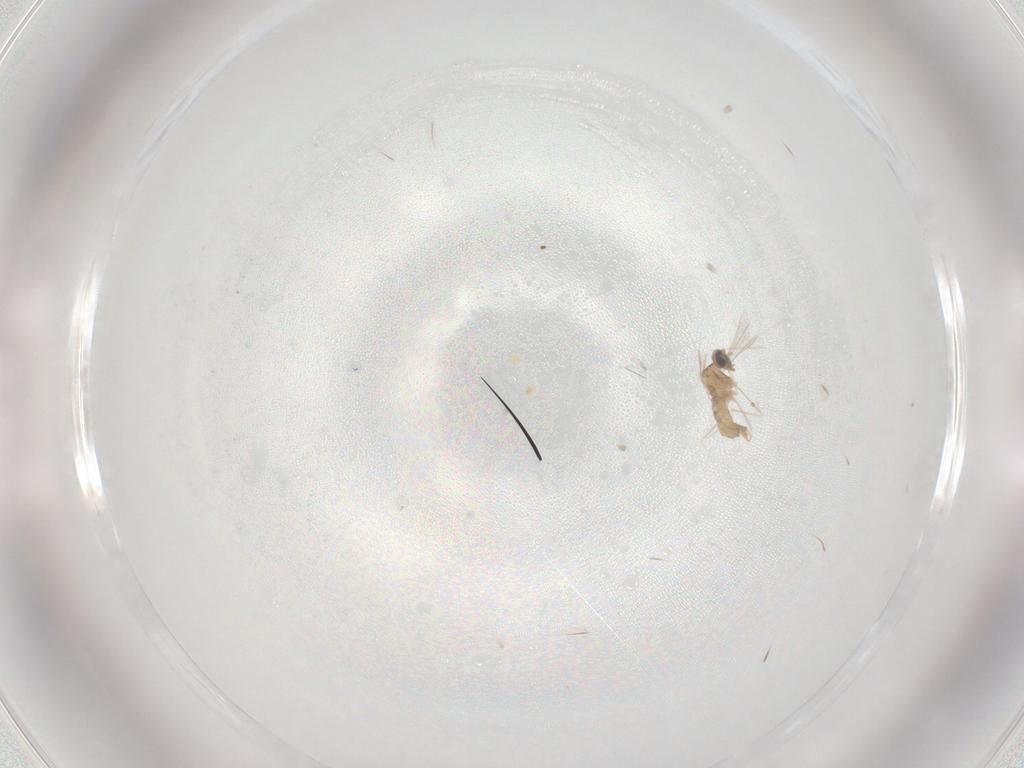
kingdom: Animalia
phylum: Arthropoda
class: Insecta
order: Diptera
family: Cecidomyiidae
